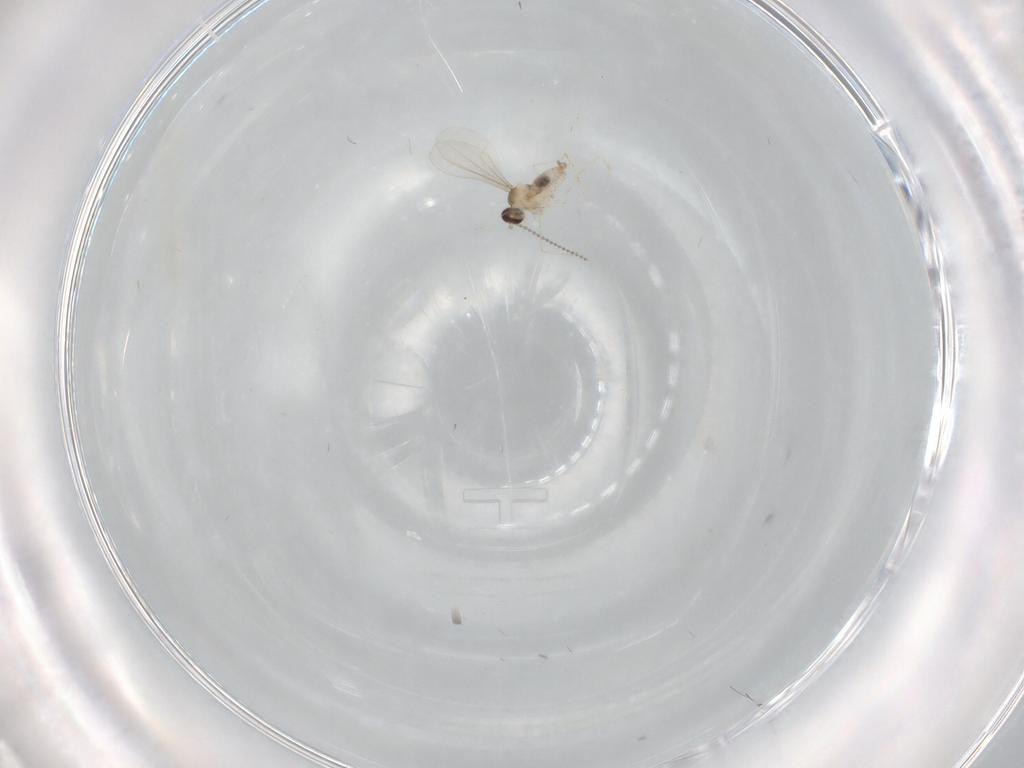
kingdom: Animalia
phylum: Arthropoda
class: Insecta
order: Diptera
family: Cecidomyiidae
